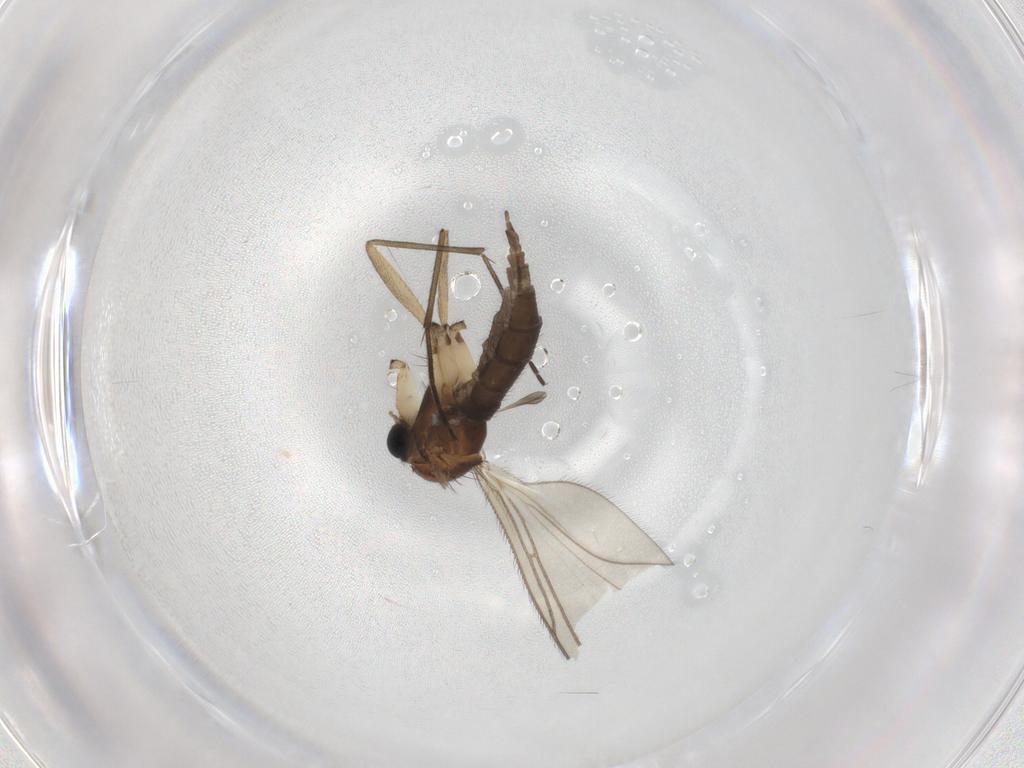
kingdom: Animalia
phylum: Arthropoda
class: Insecta
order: Diptera
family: Sciaridae
